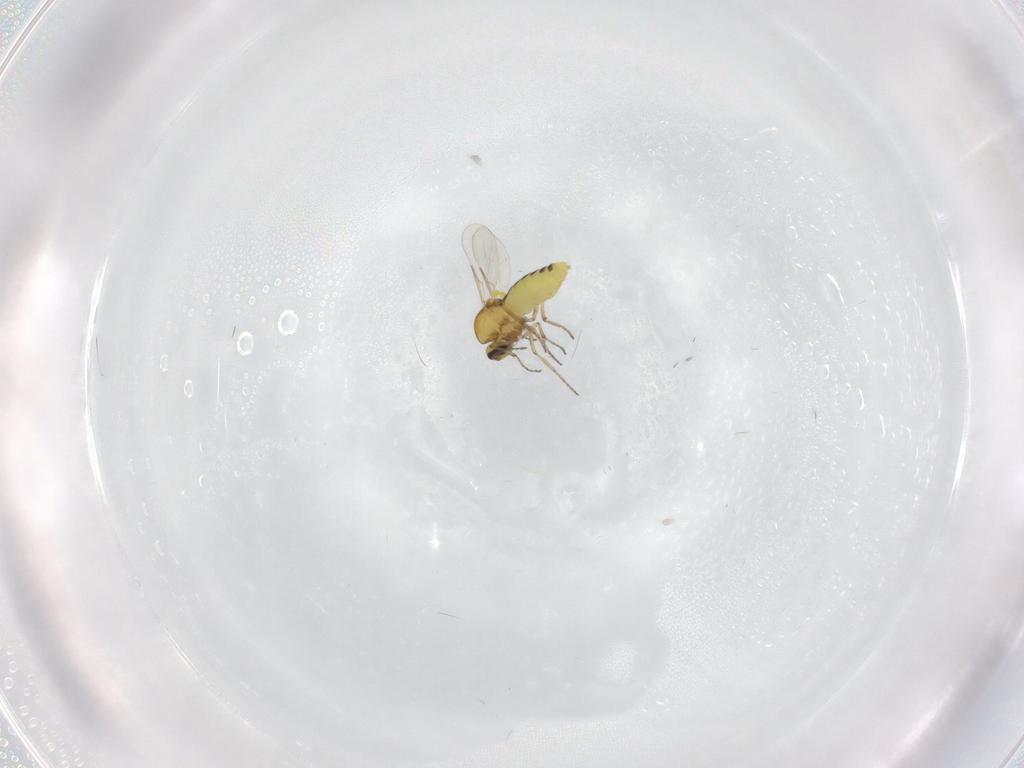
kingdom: Animalia
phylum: Arthropoda
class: Insecta
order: Diptera
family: Ceratopogonidae
